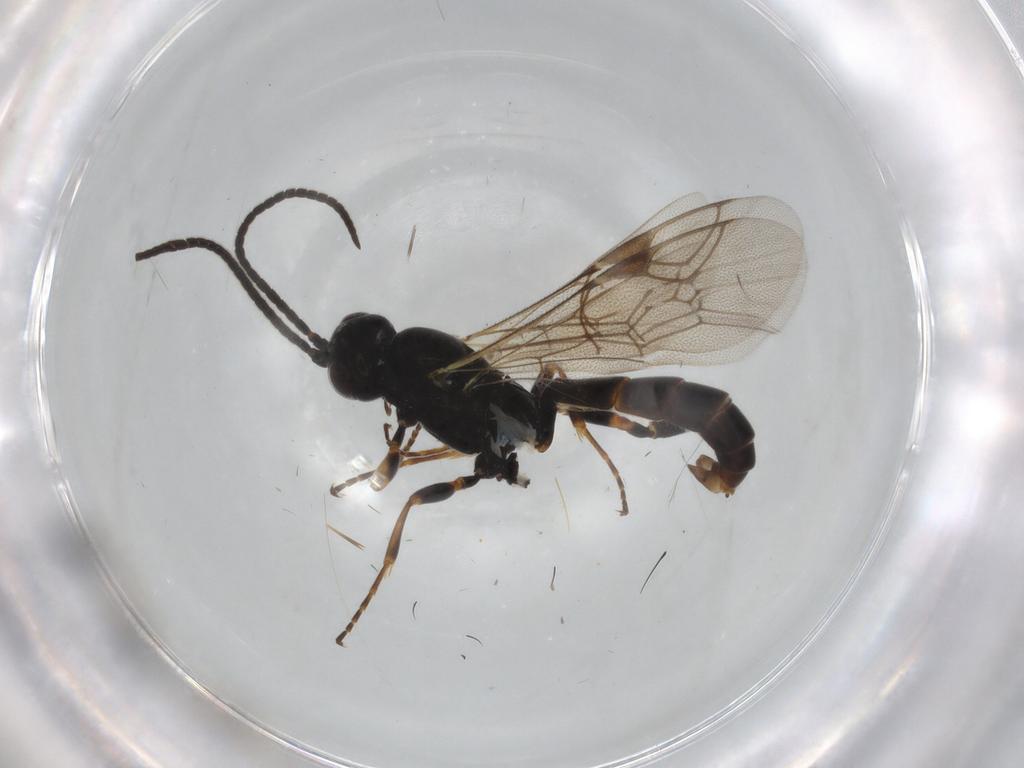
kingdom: Animalia
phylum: Arthropoda
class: Insecta
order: Hymenoptera
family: Ichneumonidae
